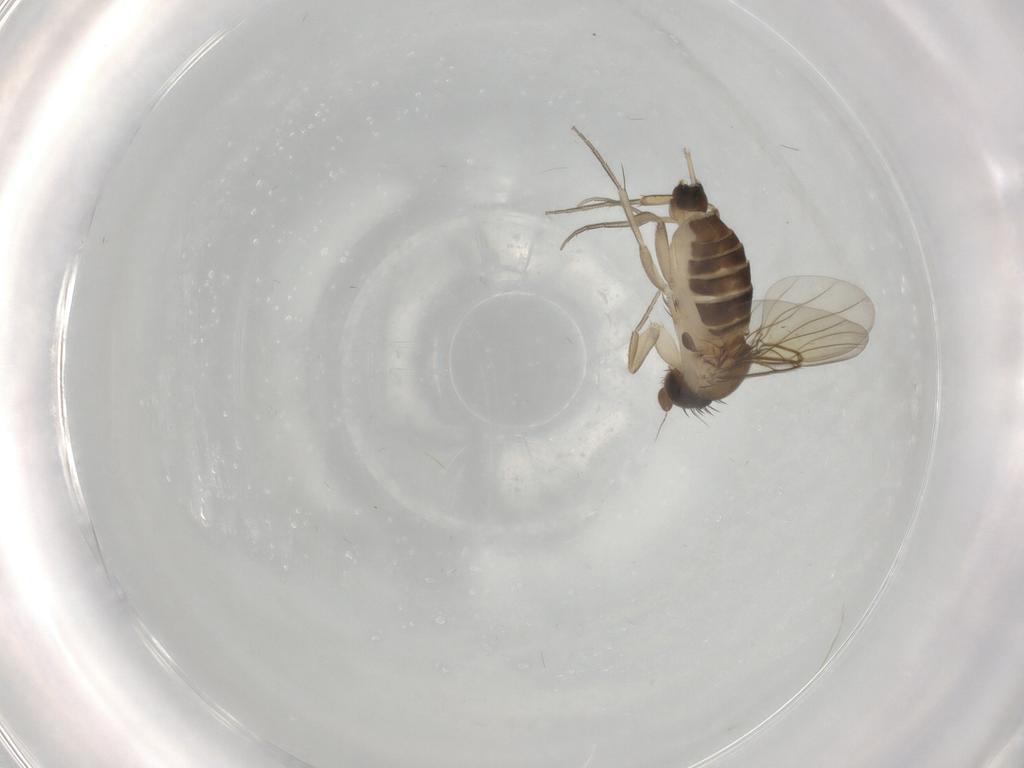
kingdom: Animalia
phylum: Arthropoda
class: Insecta
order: Diptera
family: Phoridae
